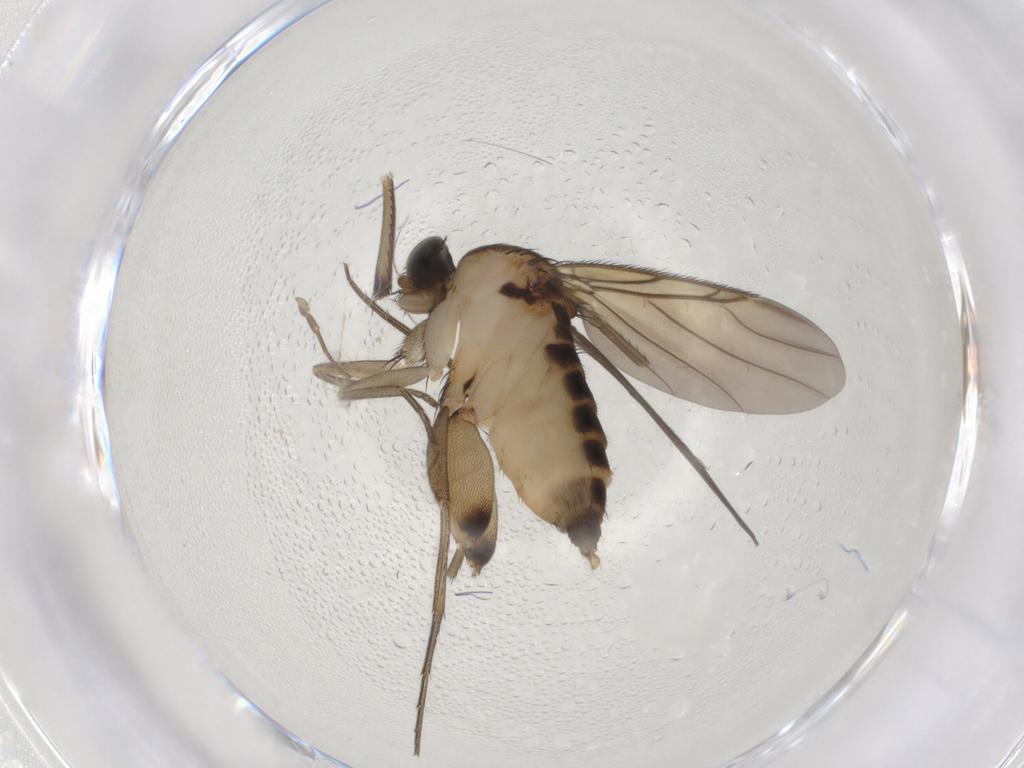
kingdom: Animalia
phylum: Arthropoda
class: Insecta
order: Diptera
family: Phoridae
